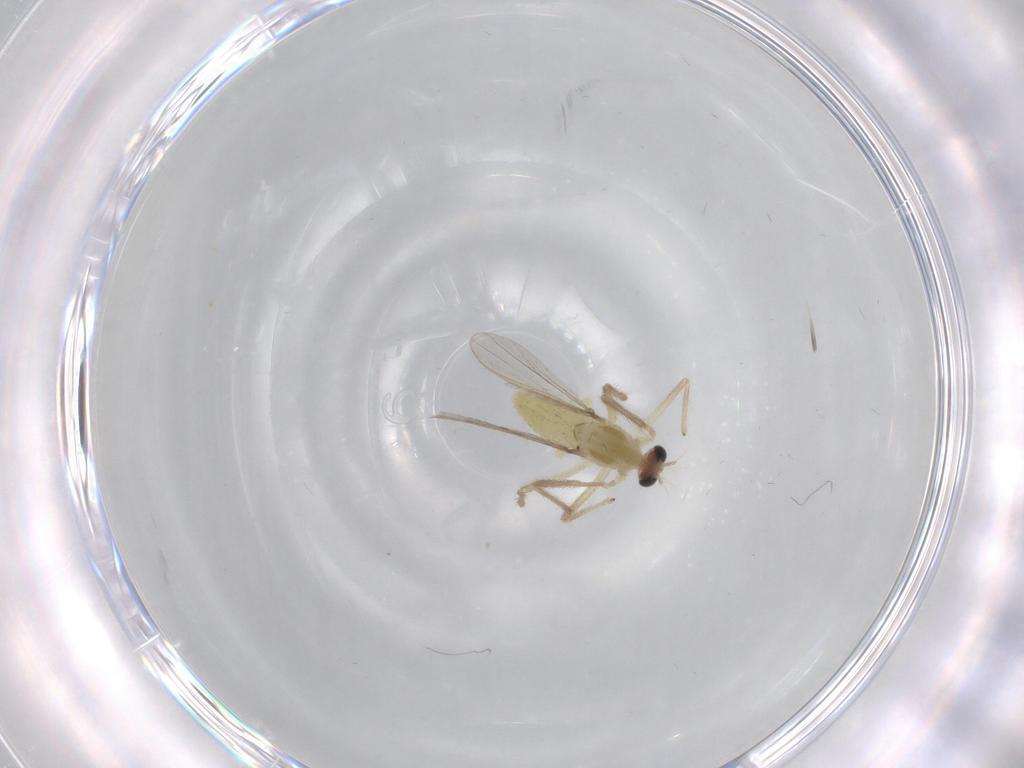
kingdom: Animalia
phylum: Arthropoda
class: Insecta
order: Diptera
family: Chironomidae
